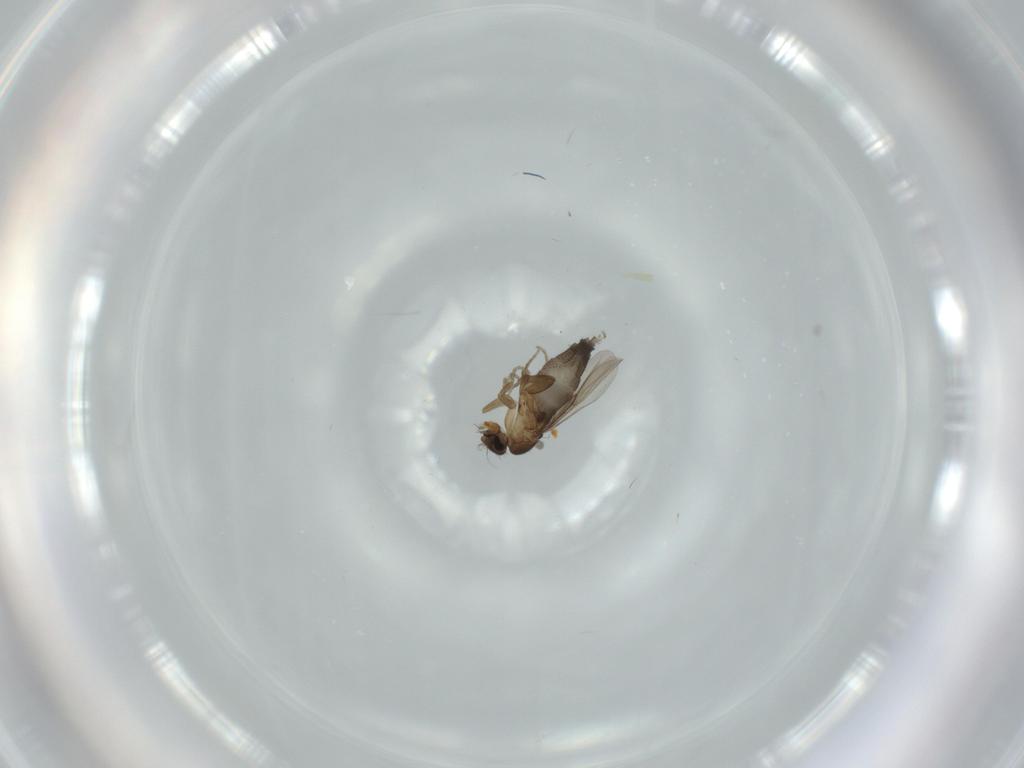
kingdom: Animalia
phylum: Arthropoda
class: Insecta
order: Diptera
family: Phoridae
